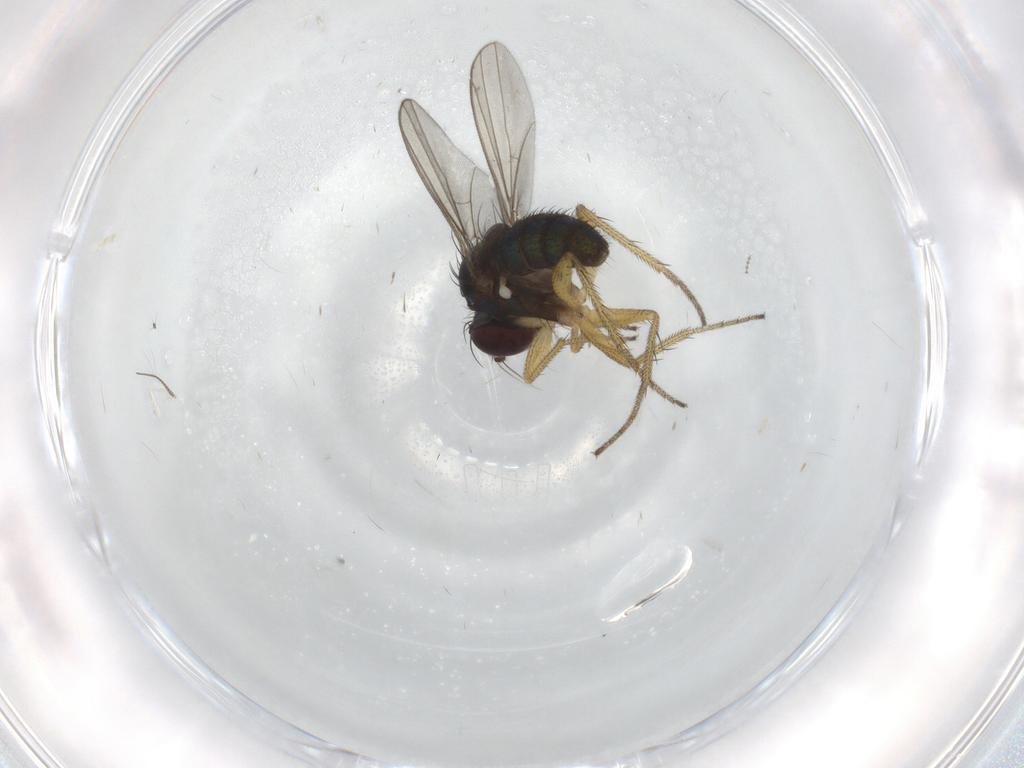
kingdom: Animalia
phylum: Arthropoda
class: Insecta
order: Diptera
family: Chironomidae
